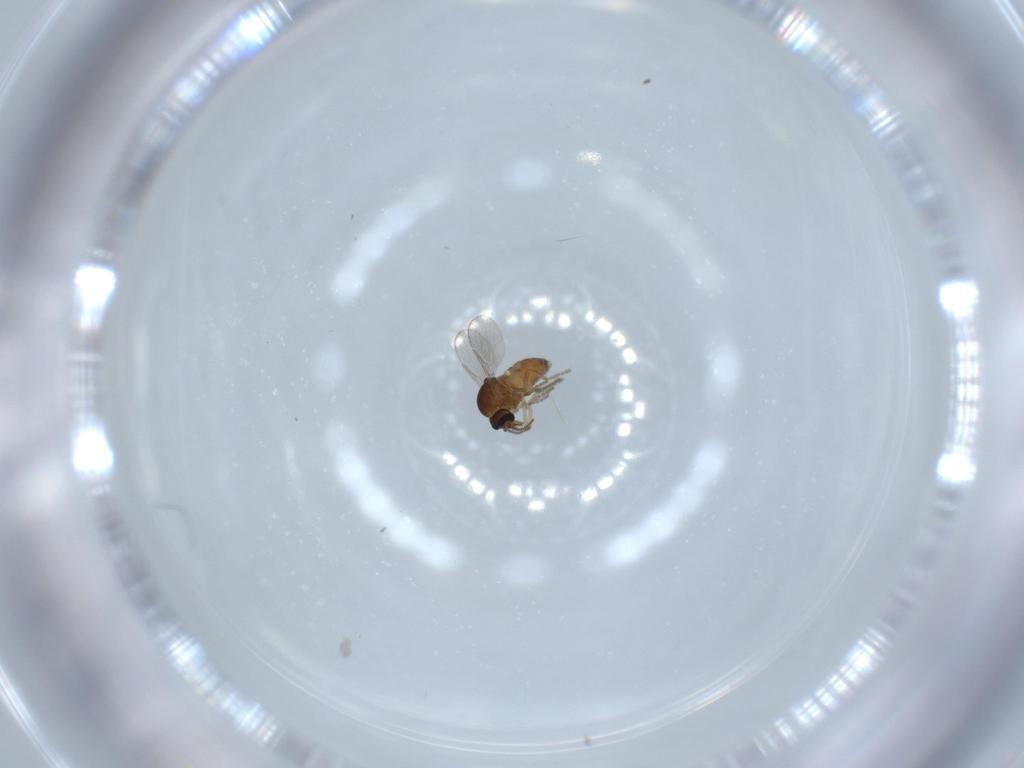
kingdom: Animalia
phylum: Arthropoda
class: Insecta
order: Diptera
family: Ceratopogonidae
